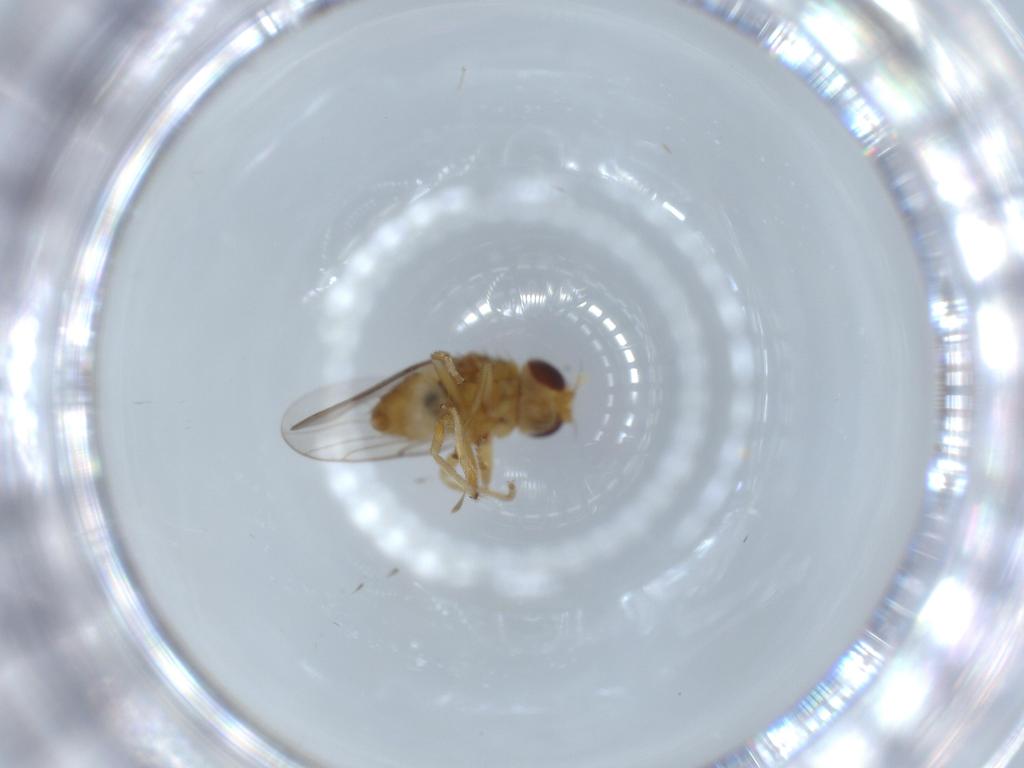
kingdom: Animalia
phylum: Arthropoda
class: Insecta
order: Diptera
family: Chloropidae
